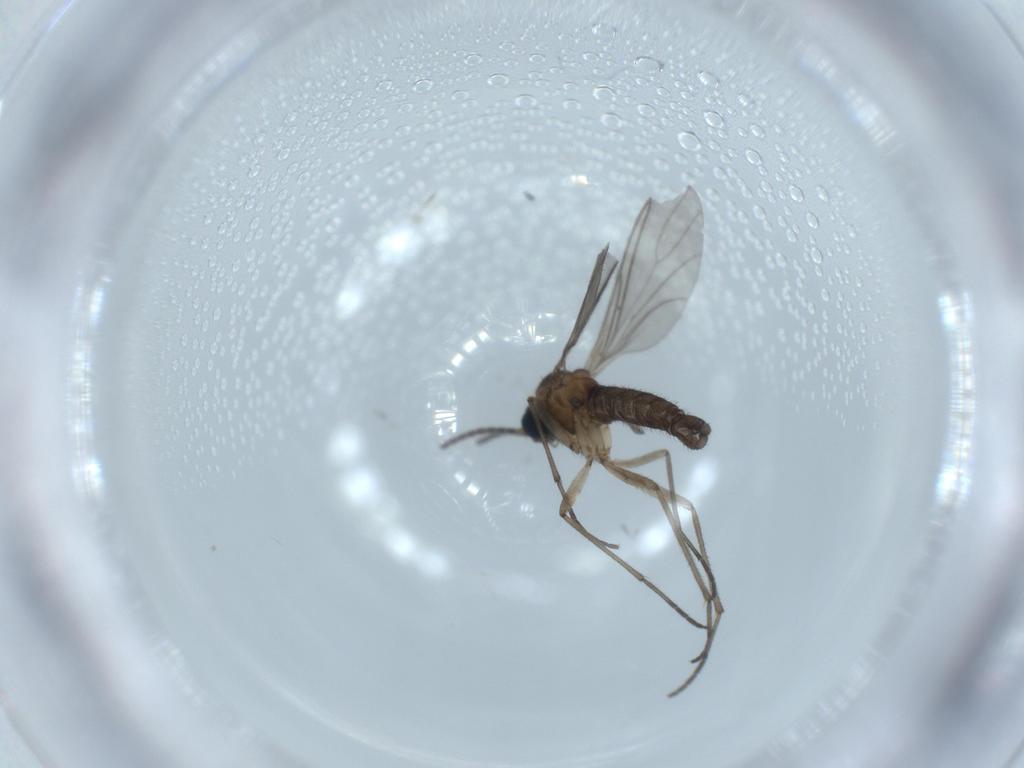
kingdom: Animalia
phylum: Arthropoda
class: Insecta
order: Diptera
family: Sciaridae
